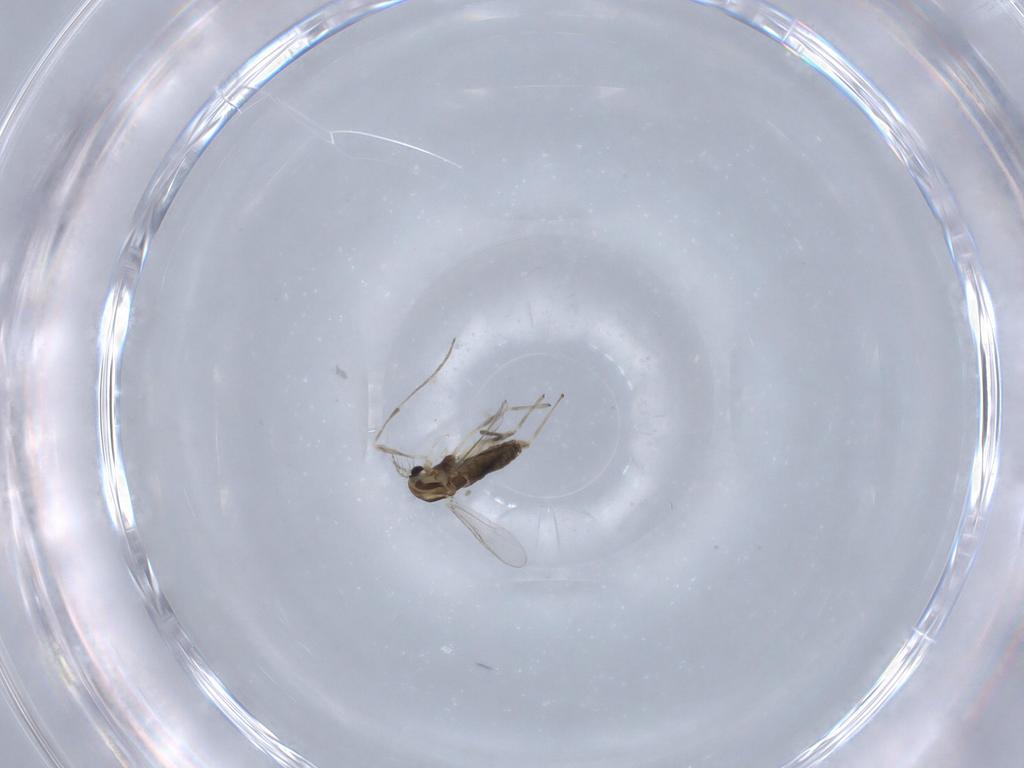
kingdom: Animalia
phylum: Arthropoda
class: Insecta
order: Diptera
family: Chironomidae
